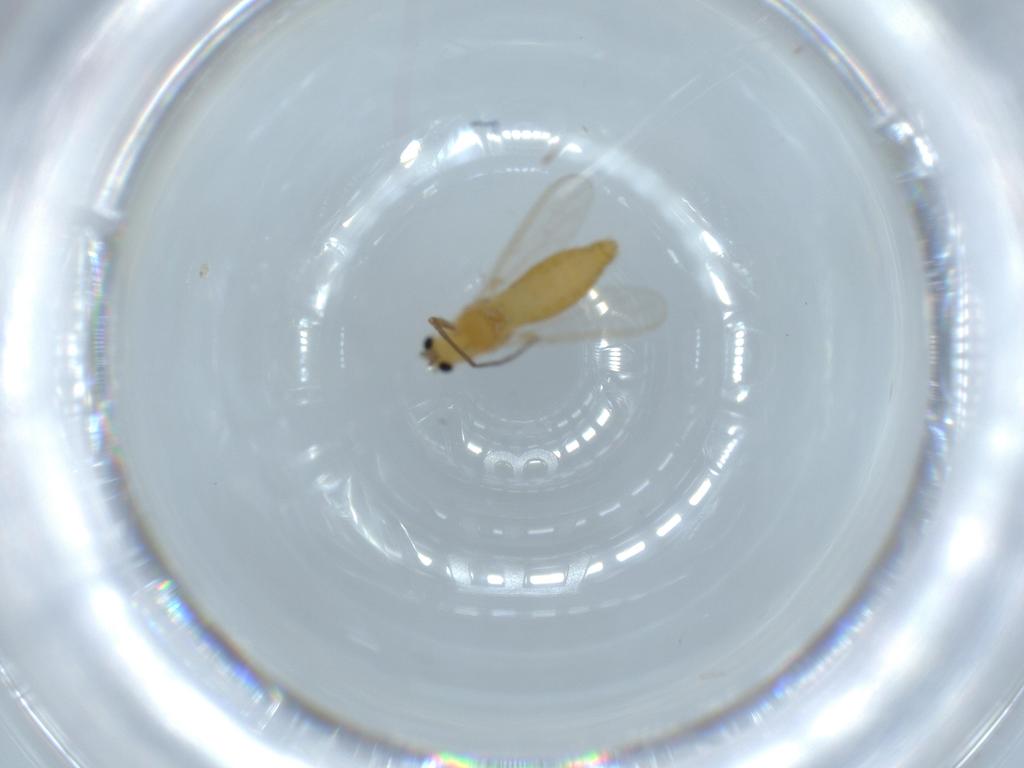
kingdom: Animalia
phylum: Arthropoda
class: Insecta
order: Diptera
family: Chironomidae
